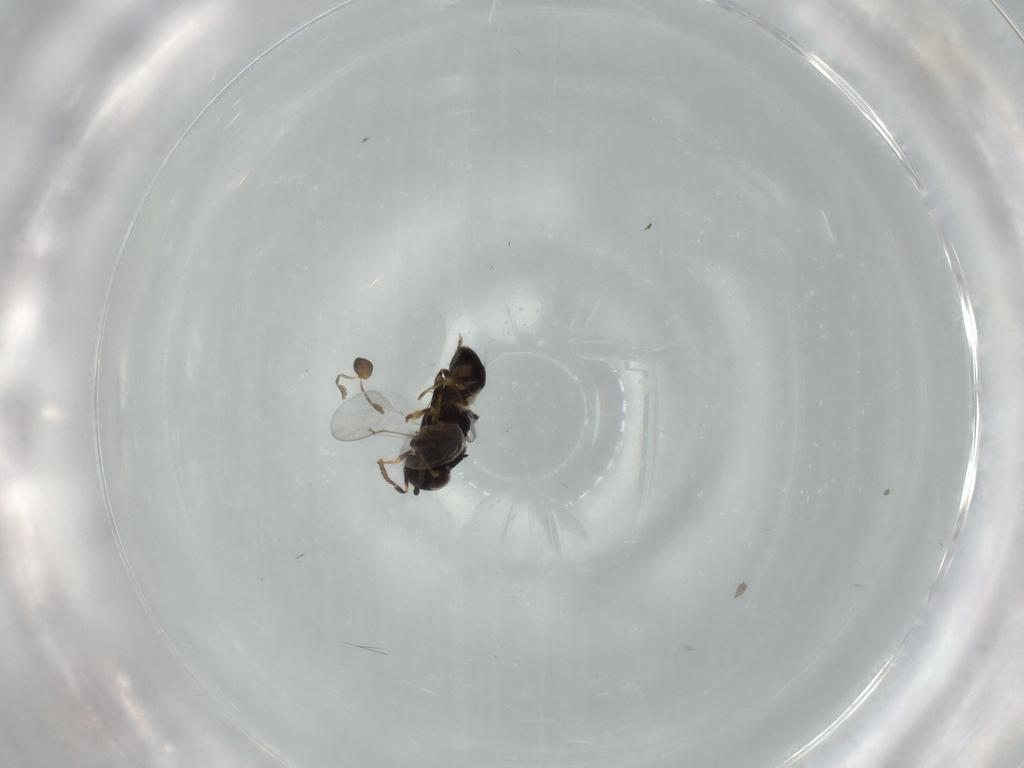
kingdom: Animalia
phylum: Arthropoda
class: Insecta
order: Hymenoptera
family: Encyrtidae
